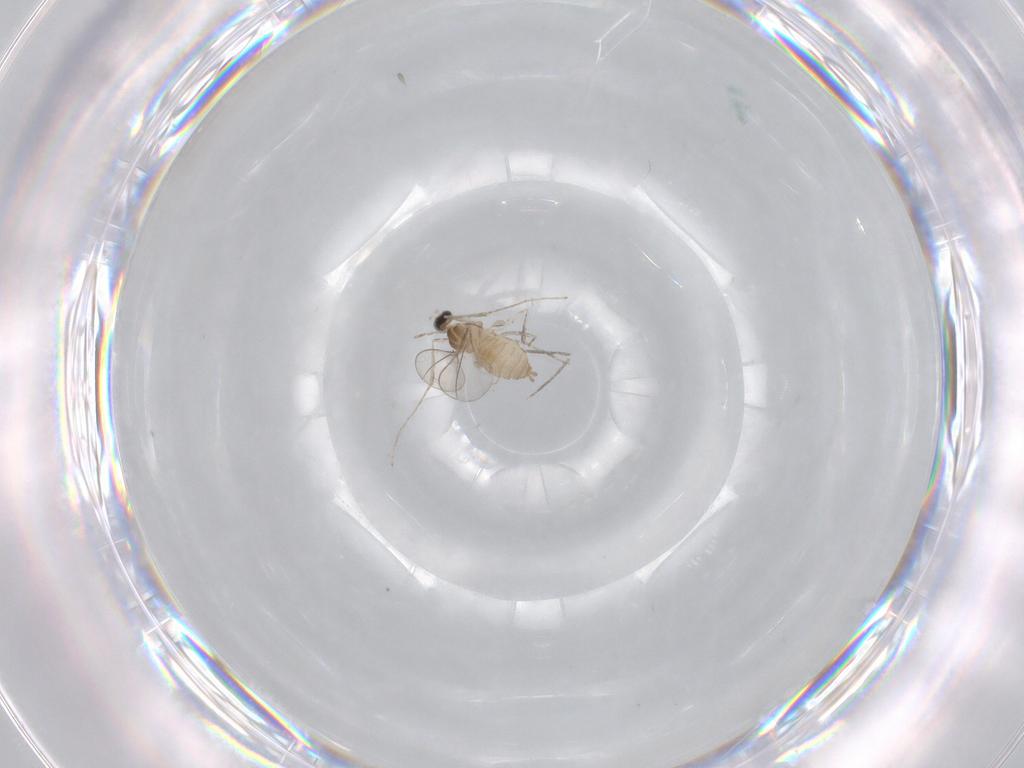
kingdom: Animalia
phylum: Arthropoda
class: Insecta
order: Diptera
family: Cecidomyiidae
